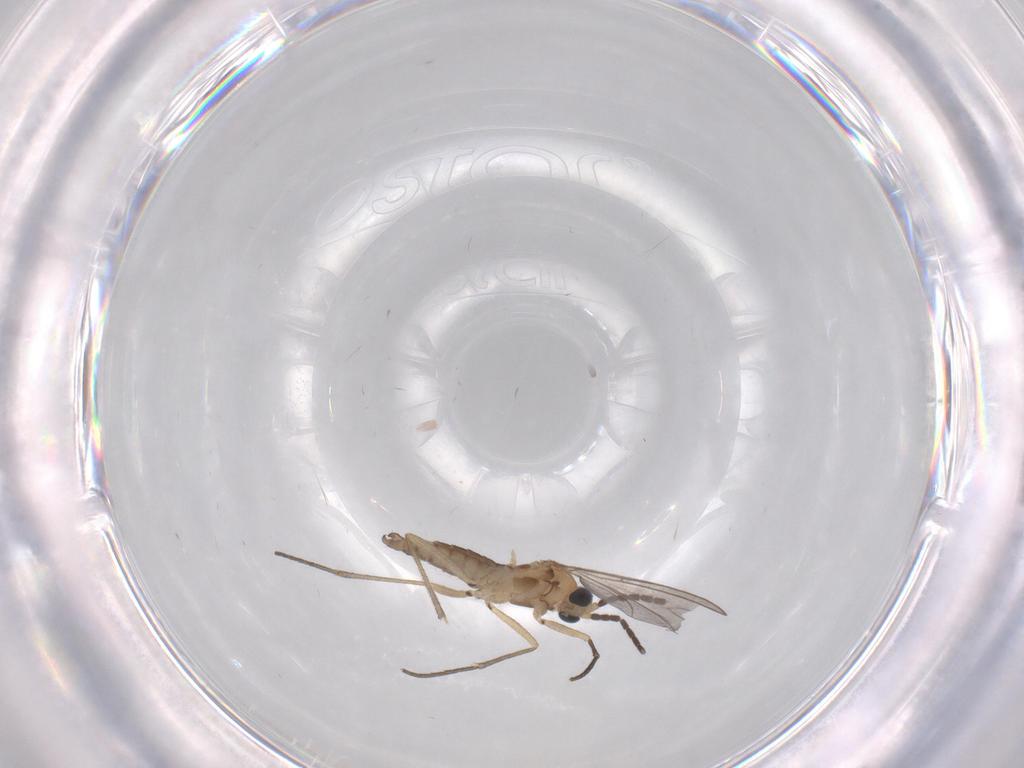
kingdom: Animalia
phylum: Arthropoda
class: Insecta
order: Diptera
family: Sciaridae
